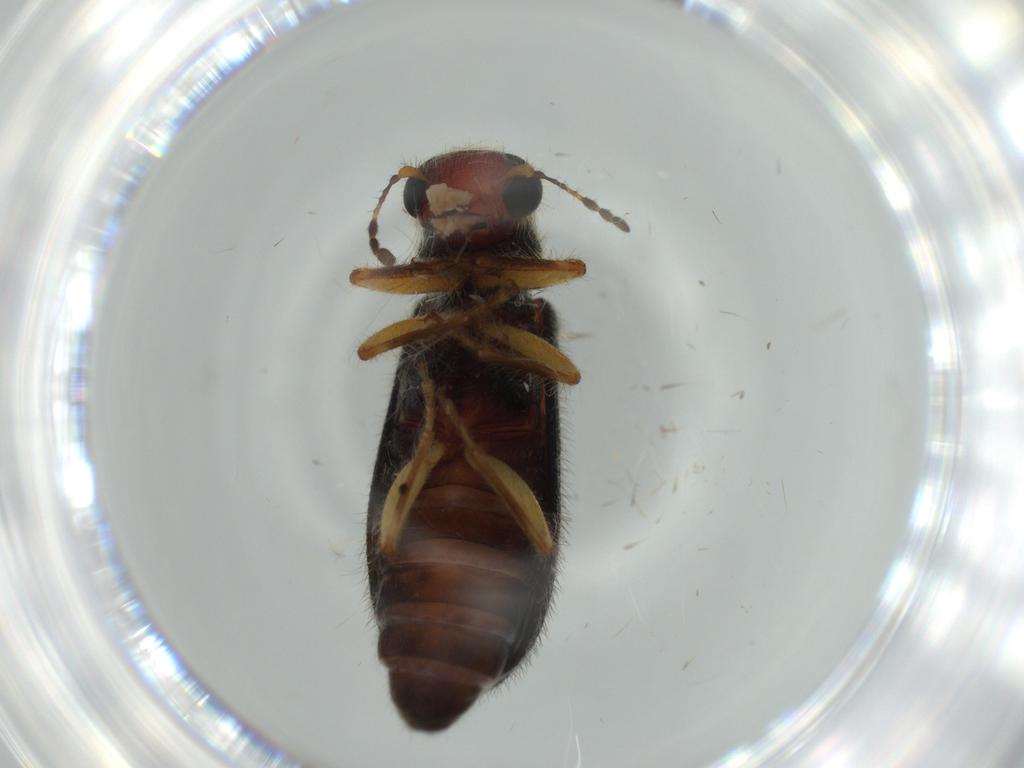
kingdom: Animalia
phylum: Arthropoda
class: Insecta
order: Coleoptera
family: Cleridae
